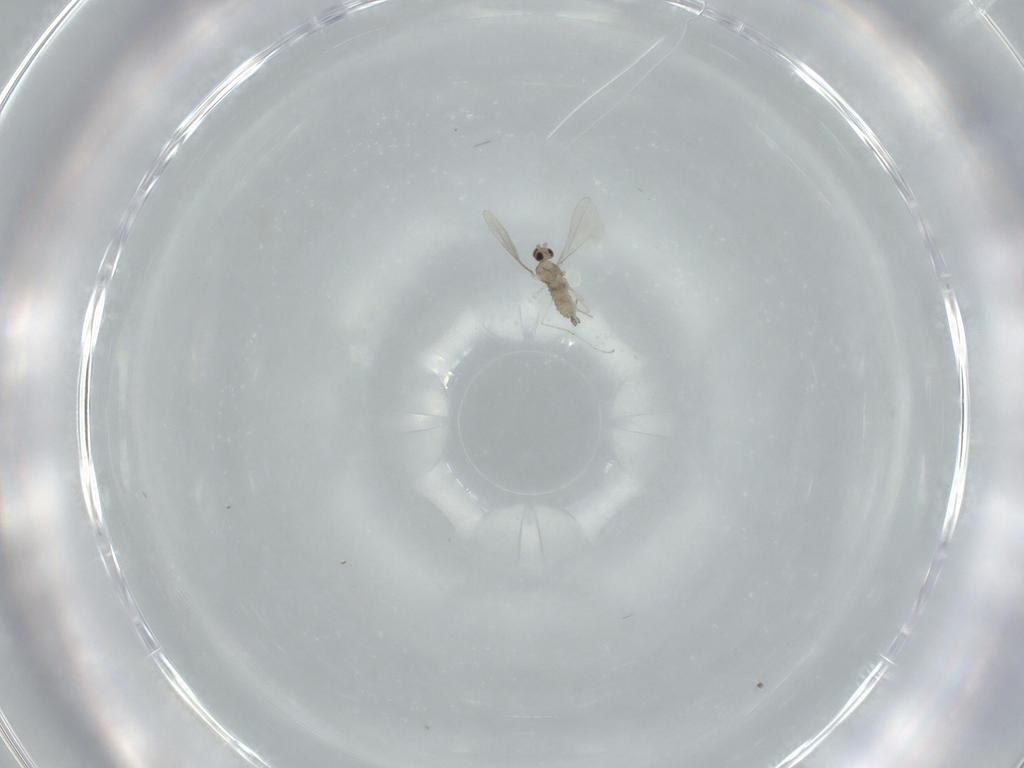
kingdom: Animalia
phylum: Arthropoda
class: Insecta
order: Diptera
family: Cecidomyiidae
